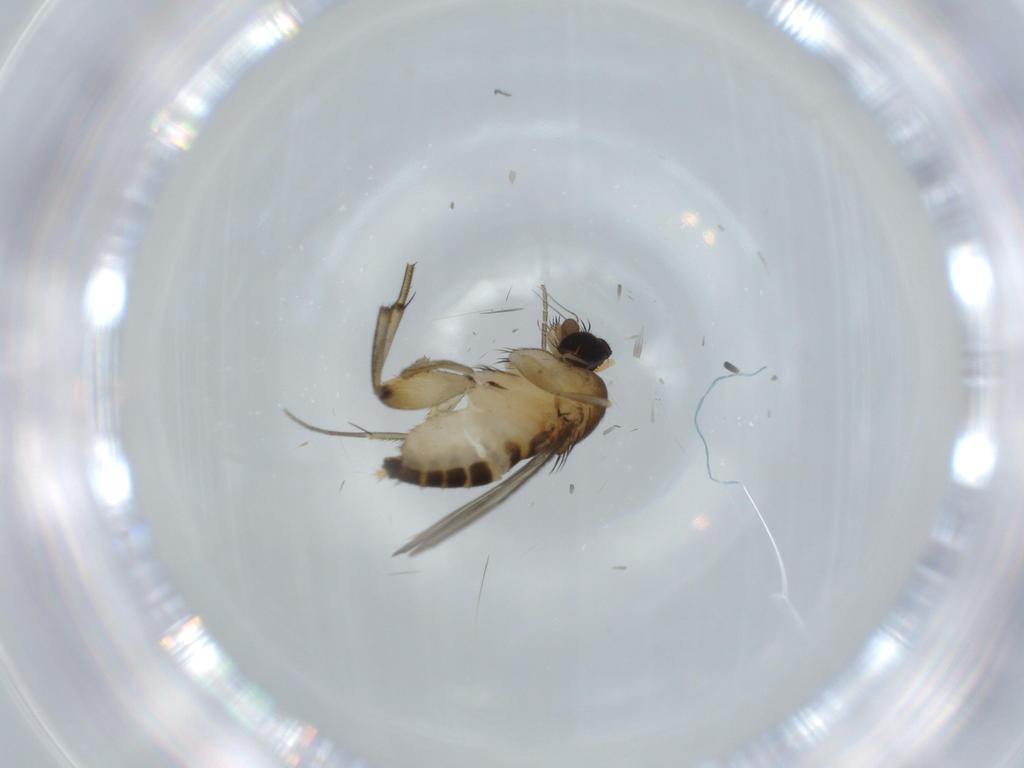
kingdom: Animalia
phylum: Arthropoda
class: Insecta
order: Diptera
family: Phoridae
